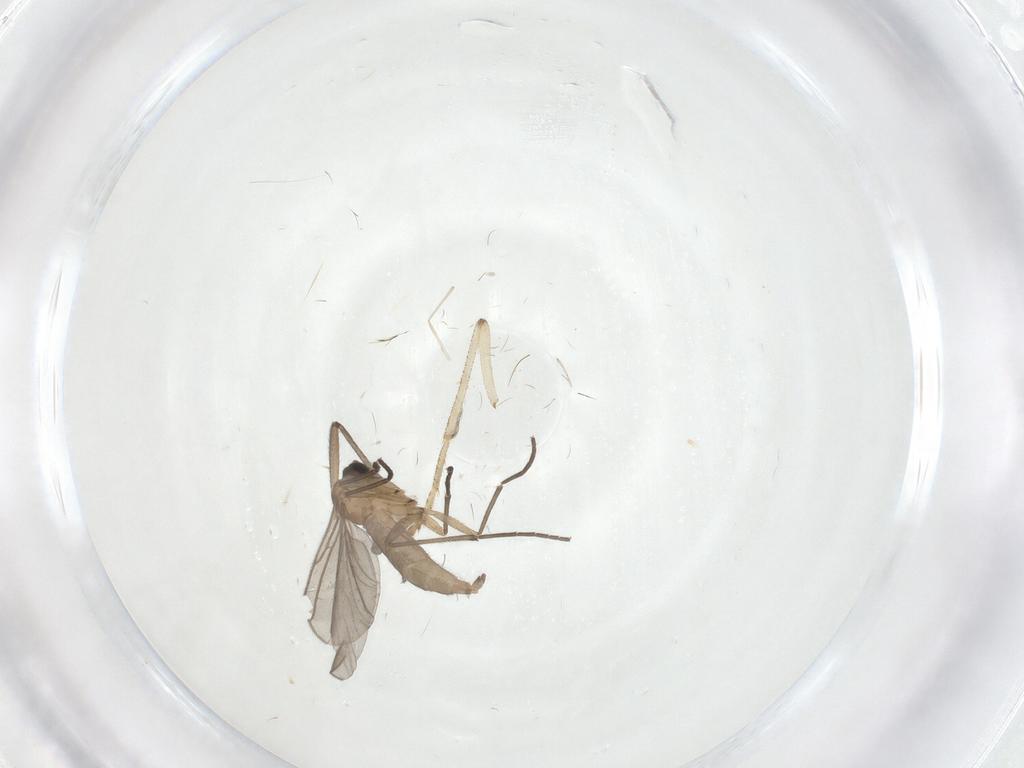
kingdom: Animalia
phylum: Arthropoda
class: Insecta
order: Diptera
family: Psychodidae
